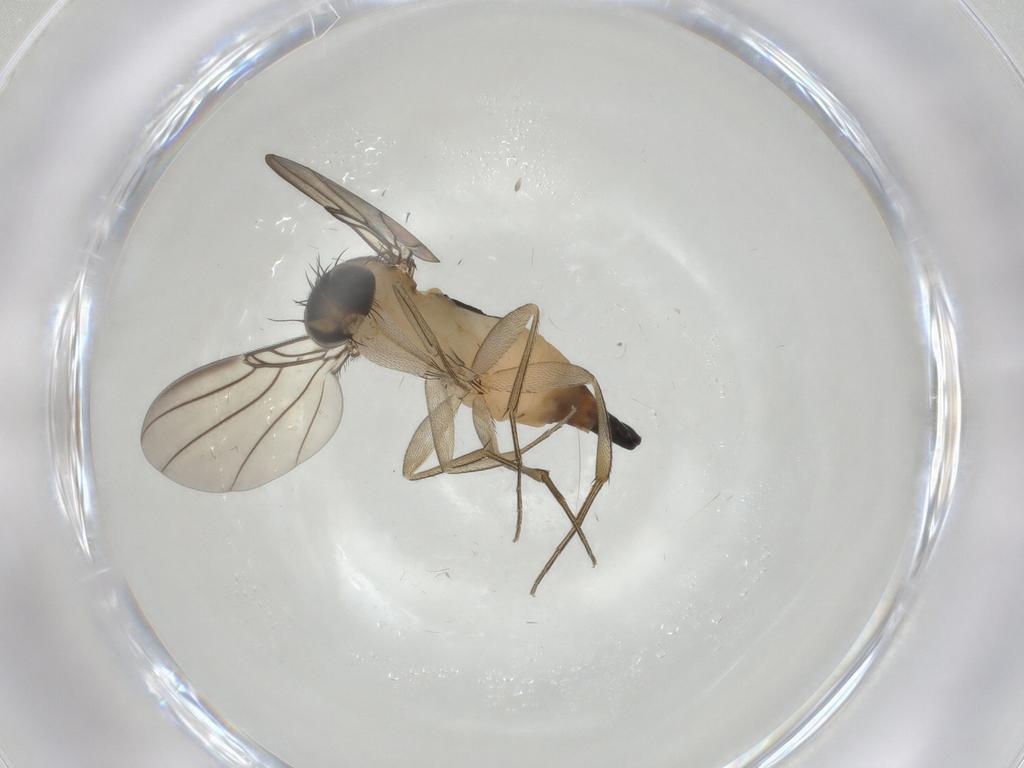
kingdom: Animalia
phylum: Arthropoda
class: Insecta
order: Diptera
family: Phoridae
